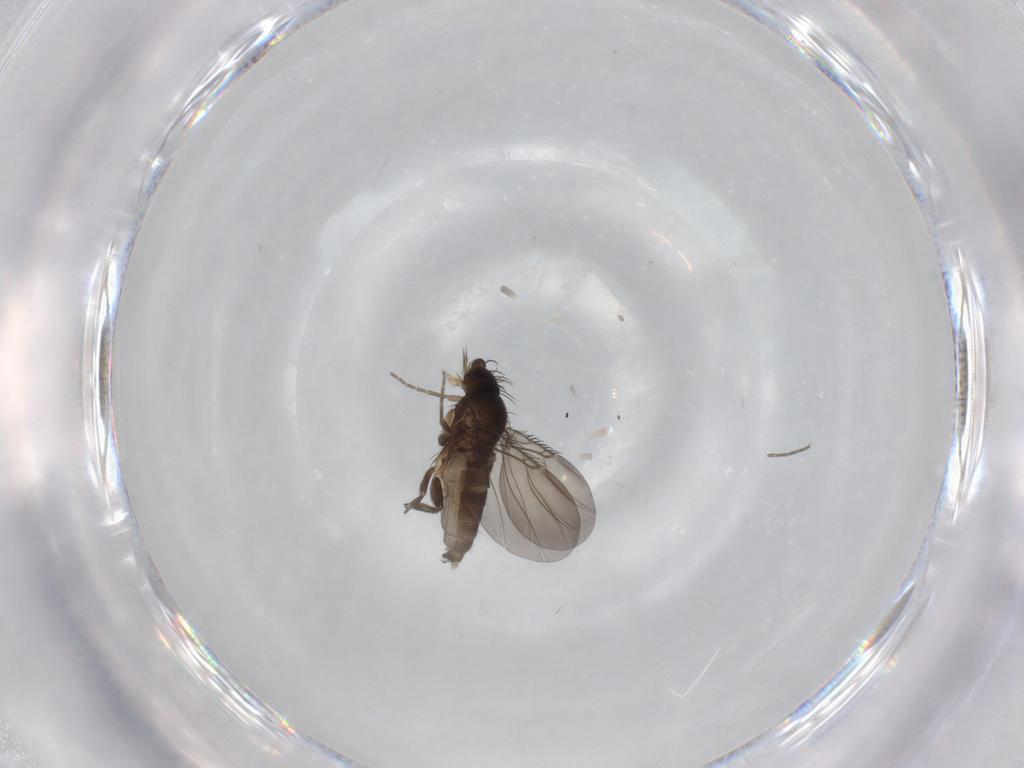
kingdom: Animalia
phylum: Arthropoda
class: Insecta
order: Diptera
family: Phoridae
